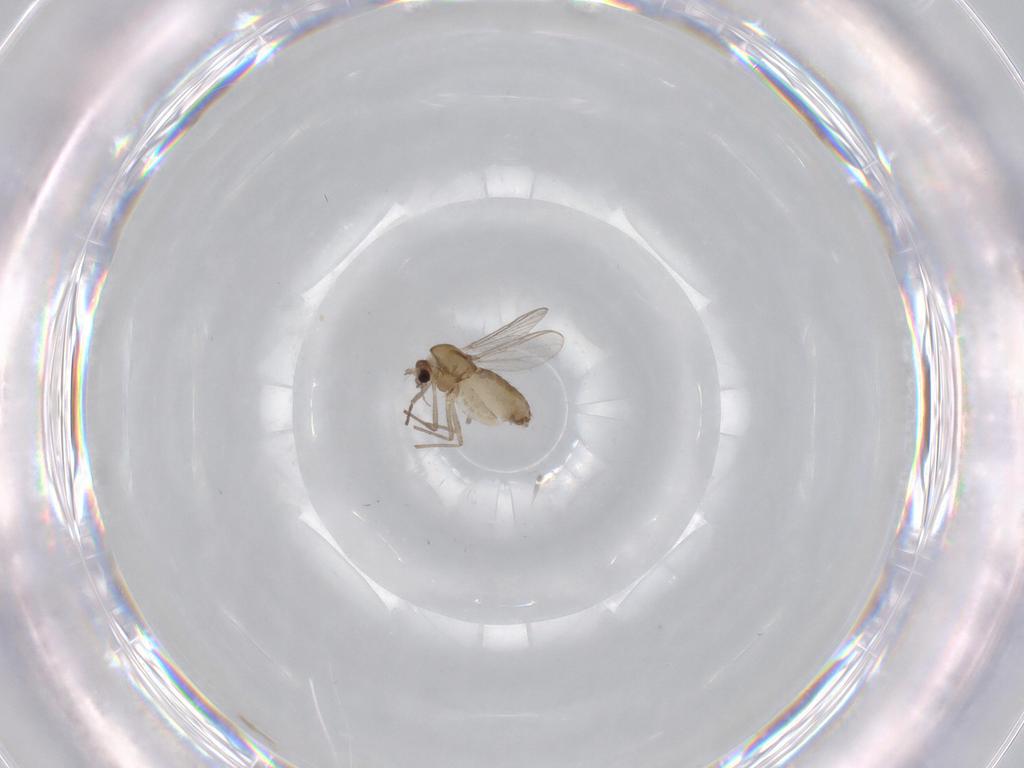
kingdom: Animalia
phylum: Arthropoda
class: Insecta
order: Diptera
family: Chironomidae
